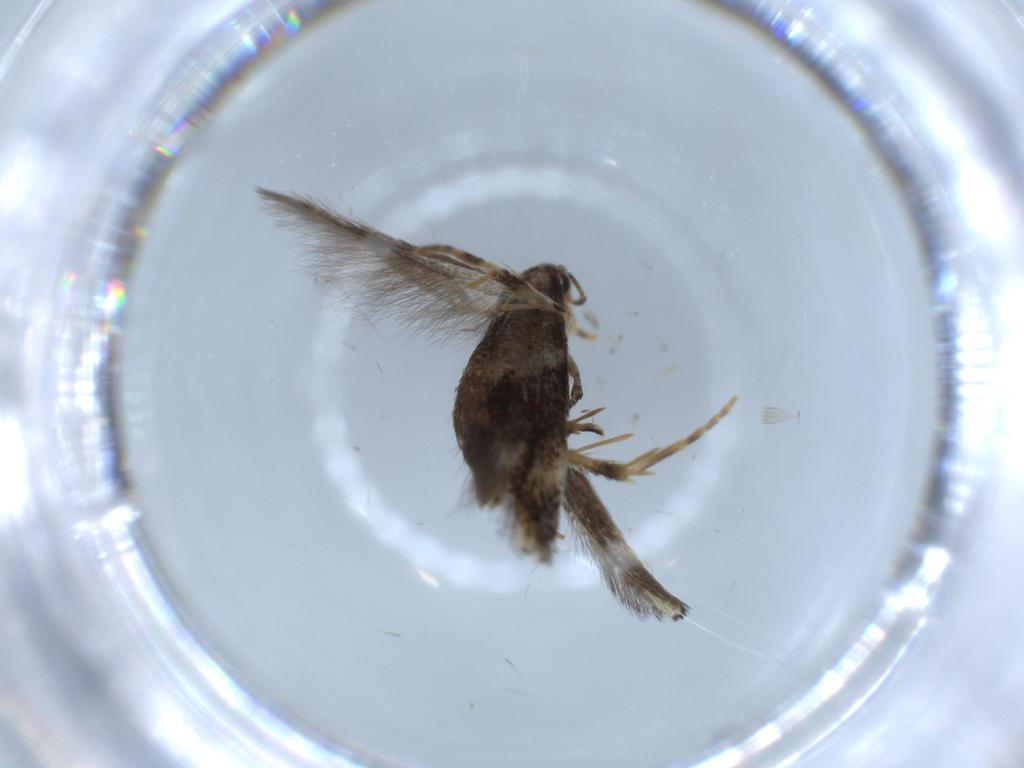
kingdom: Animalia
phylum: Arthropoda
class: Insecta
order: Lepidoptera
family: Elachistidae
